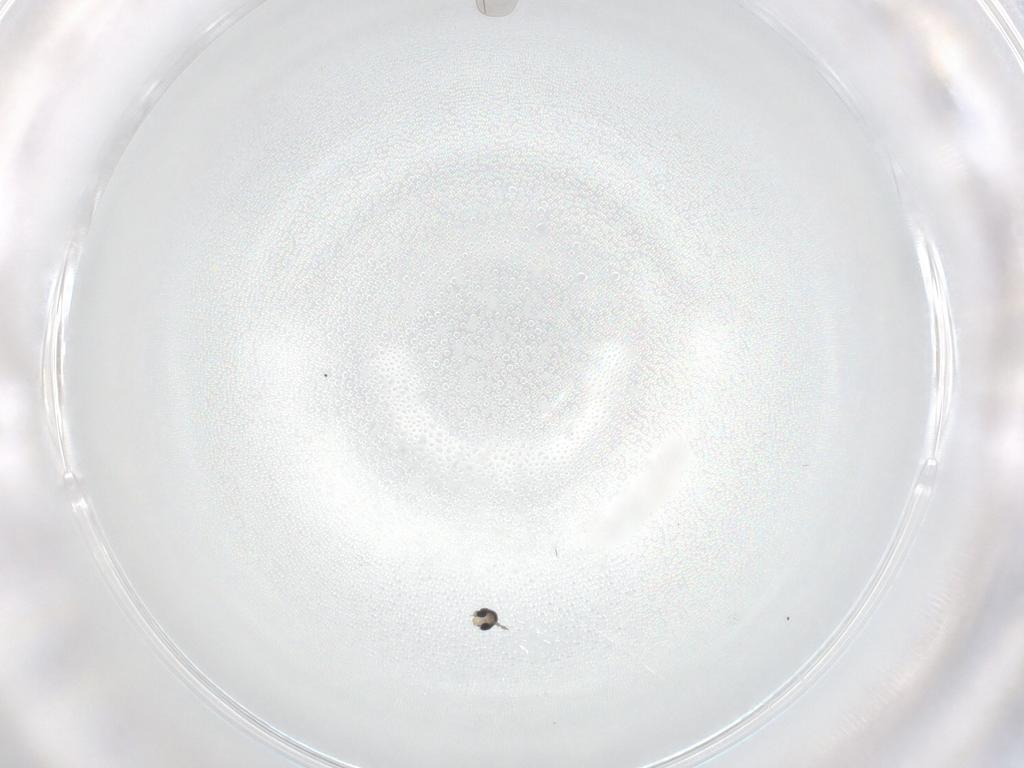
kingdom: Animalia
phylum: Arthropoda
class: Insecta
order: Diptera
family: Cecidomyiidae
